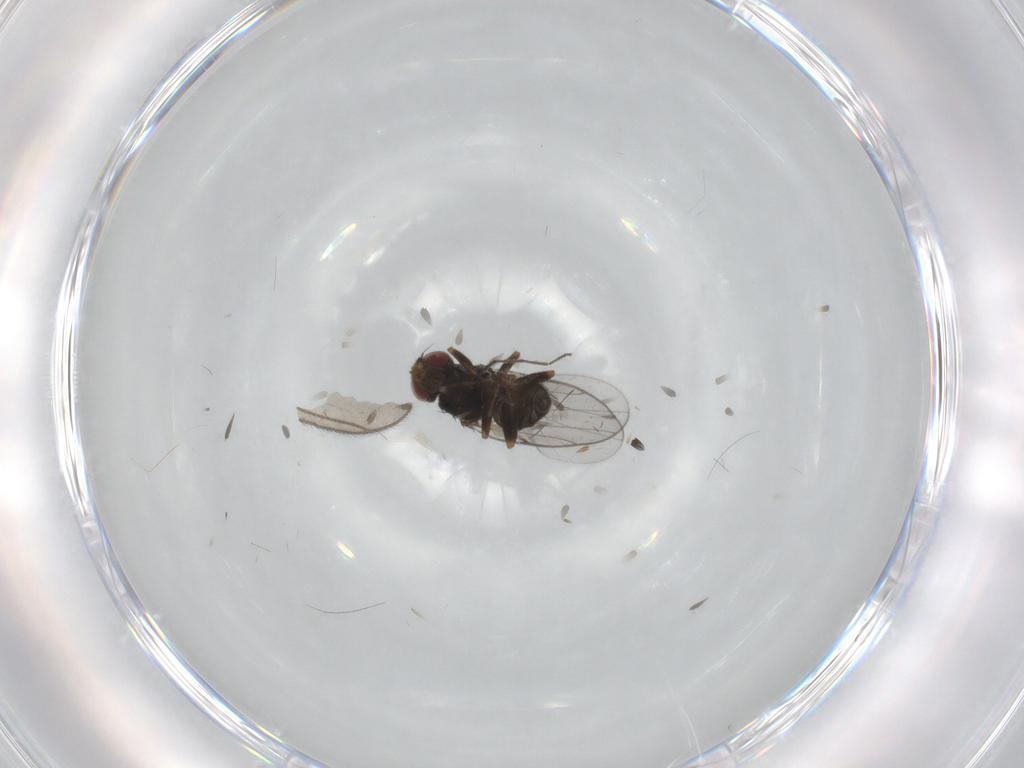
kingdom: Animalia
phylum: Arthropoda
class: Insecta
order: Diptera
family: Chloropidae
